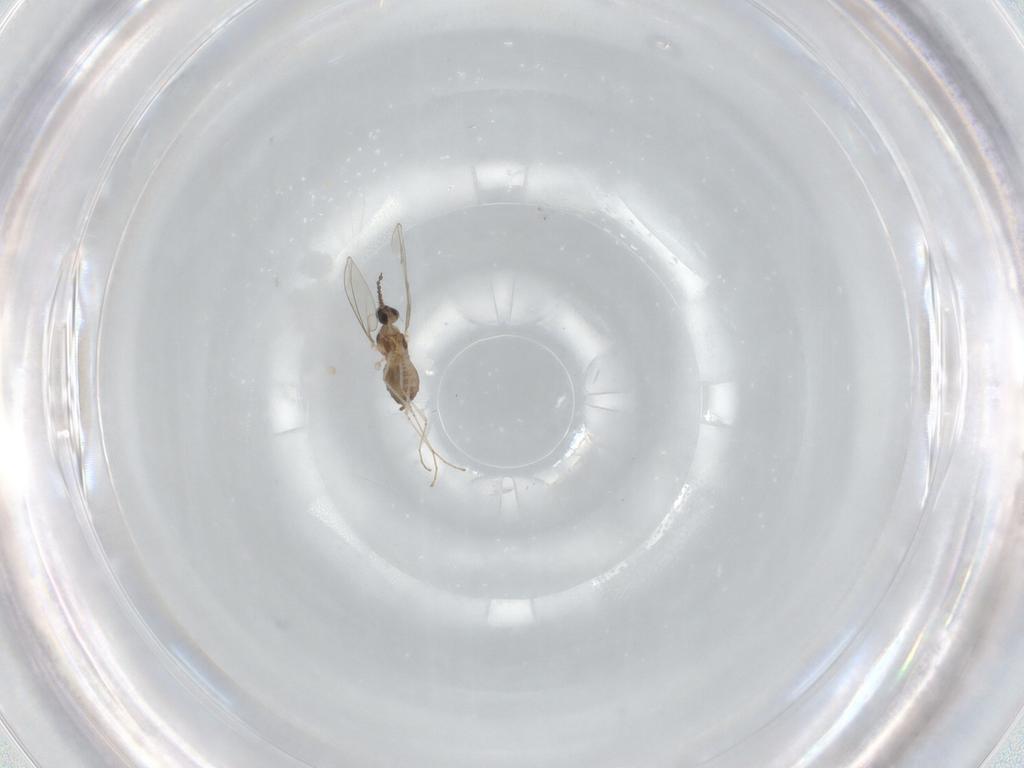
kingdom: Animalia
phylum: Arthropoda
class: Insecta
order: Diptera
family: Cecidomyiidae
